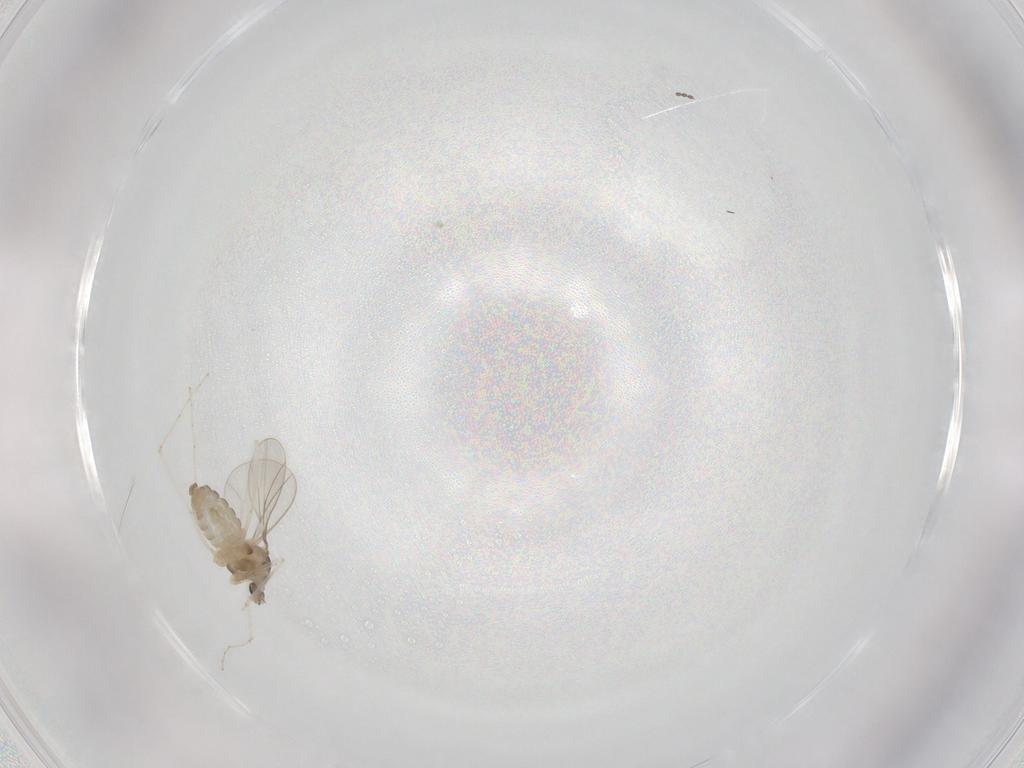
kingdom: Animalia
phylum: Arthropoda
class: Insecta
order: Diptera
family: Cecidomyiidae
